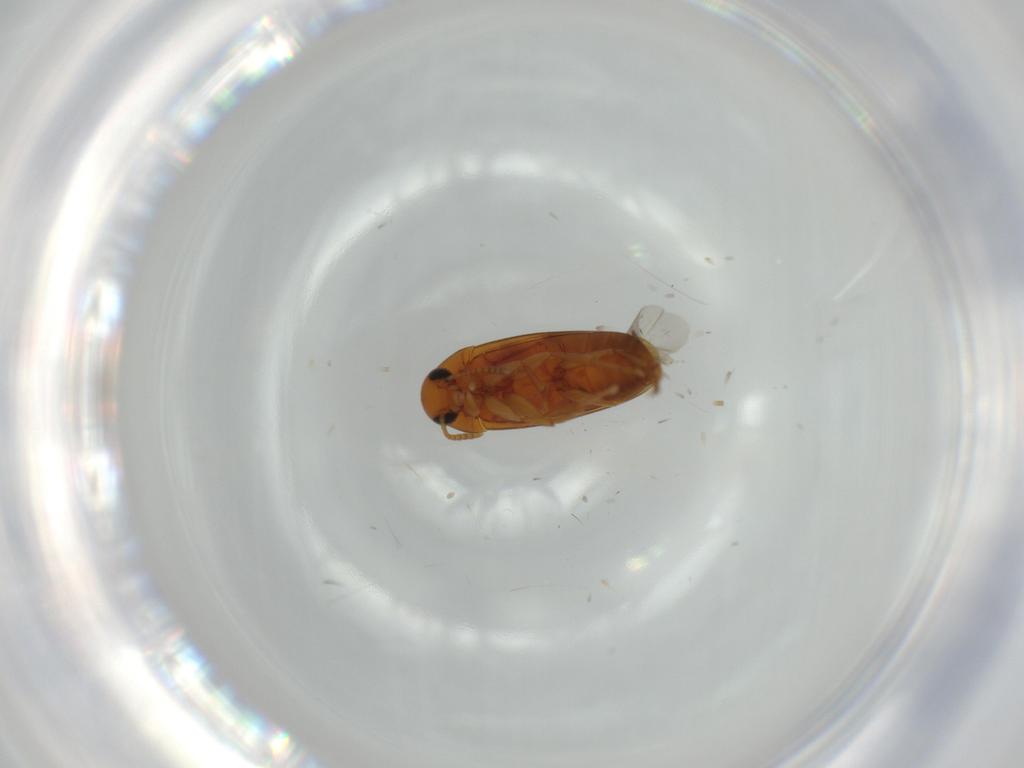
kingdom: Animalia
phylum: Arthropoda
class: Insecta
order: Coleoptera
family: Scraptiidae
